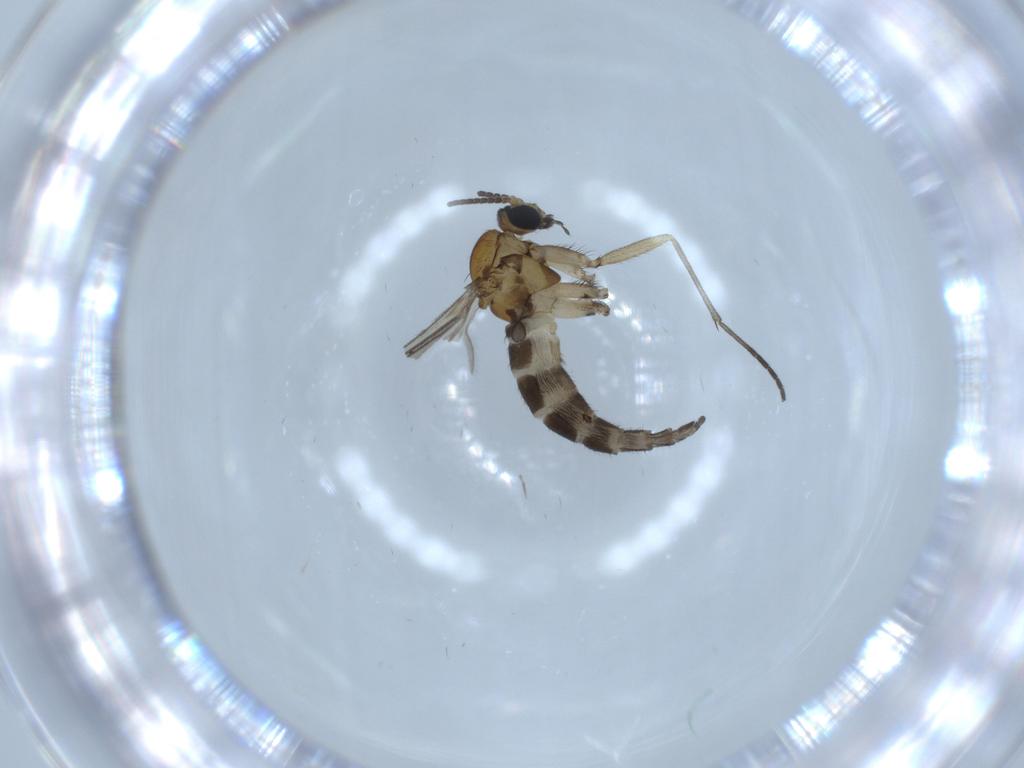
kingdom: Animalia
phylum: Arthropoda
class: Insecta
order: Diptera
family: Sciaridae
